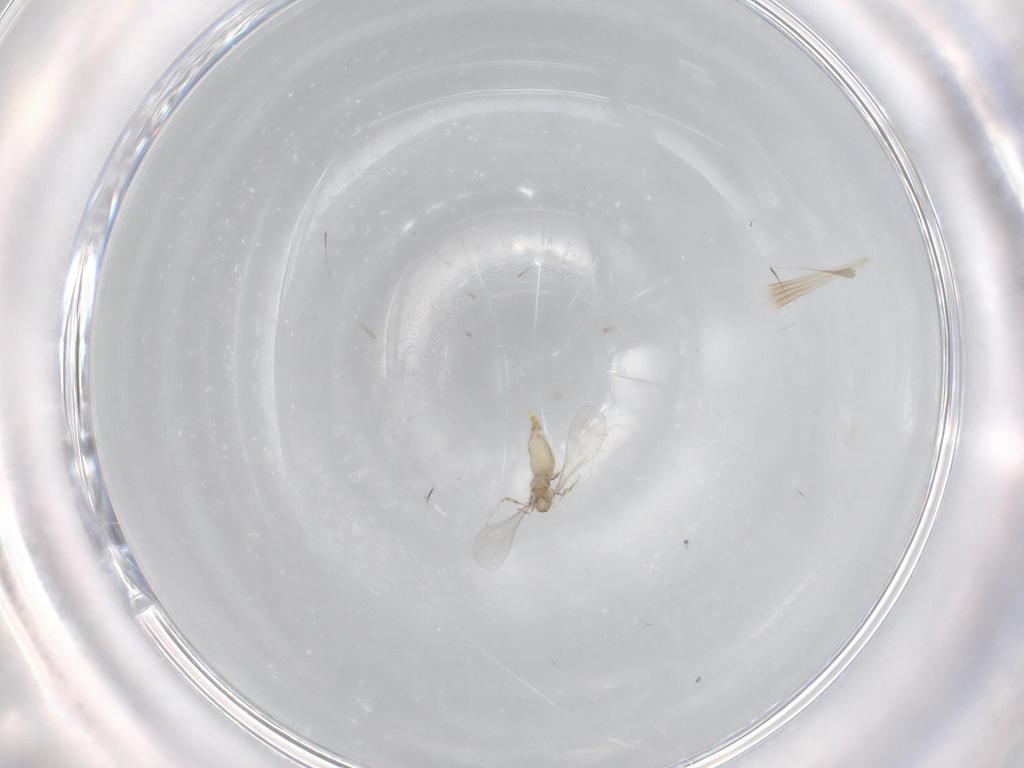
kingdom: Animalia
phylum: Arthropoda
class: Insecta
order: Diptera
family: Cecidomyiidae
